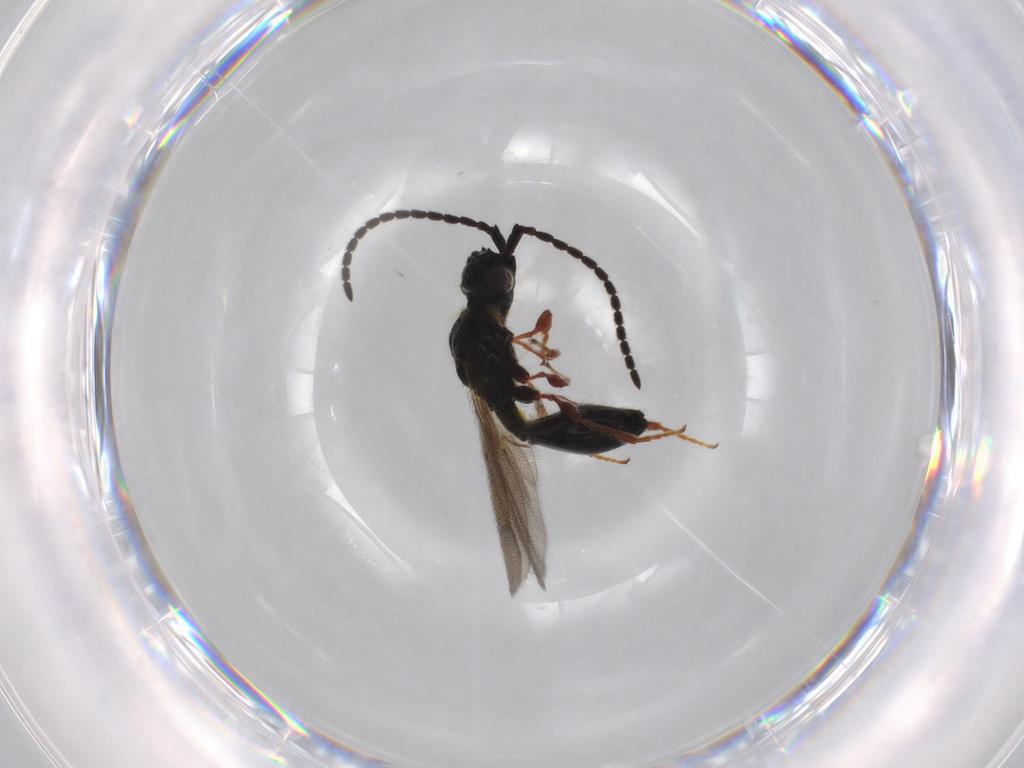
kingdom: Animalia
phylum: Arthropoda
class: Insecta
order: Hymenoptera
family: Diapriidae
